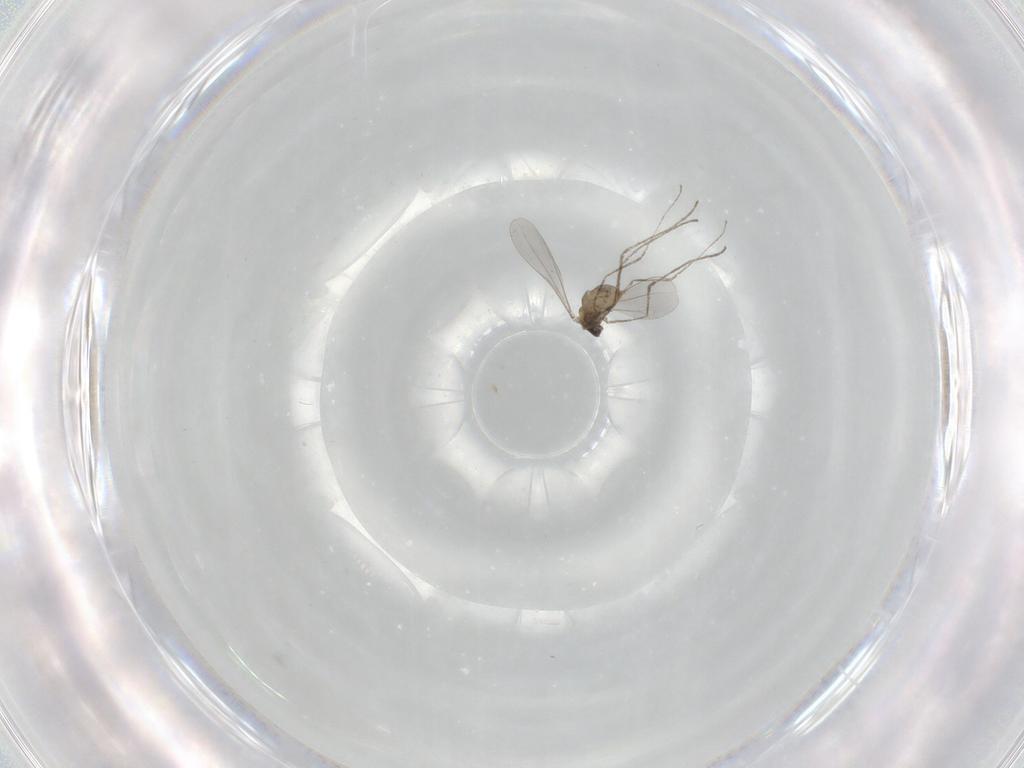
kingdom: Animalia
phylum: Arthropoda
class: Insecta
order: Diptera
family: Cecidomyiidae
